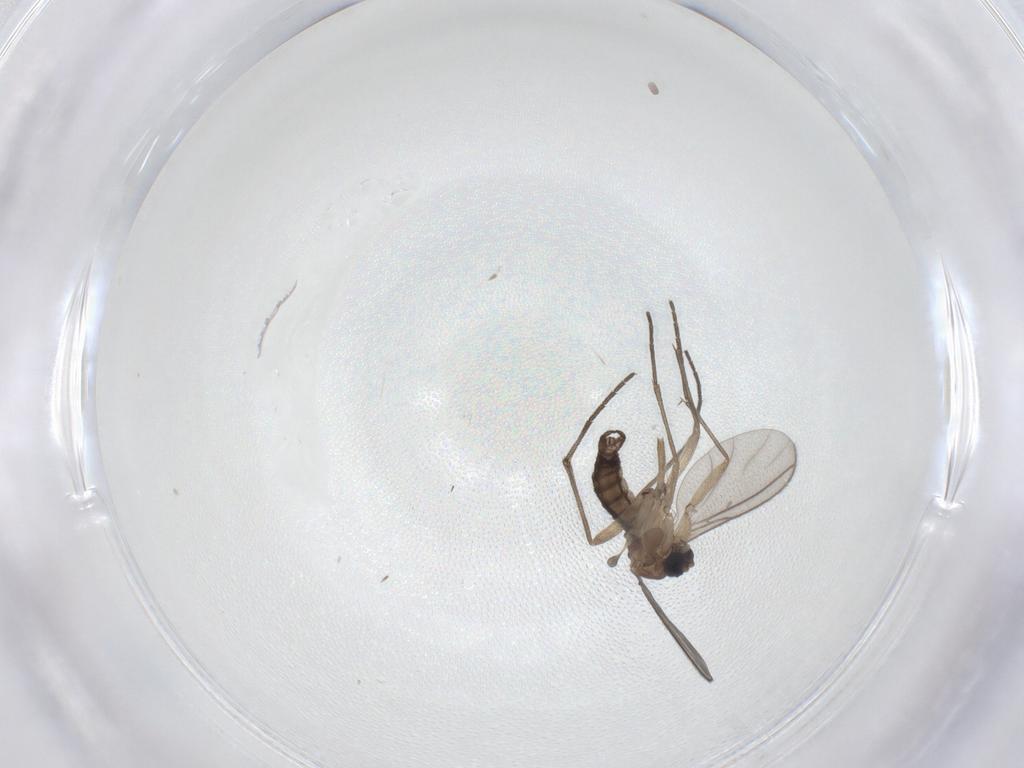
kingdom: Animalia
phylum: Arthropoda
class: Insecta
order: Diptera
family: Sciaridae
